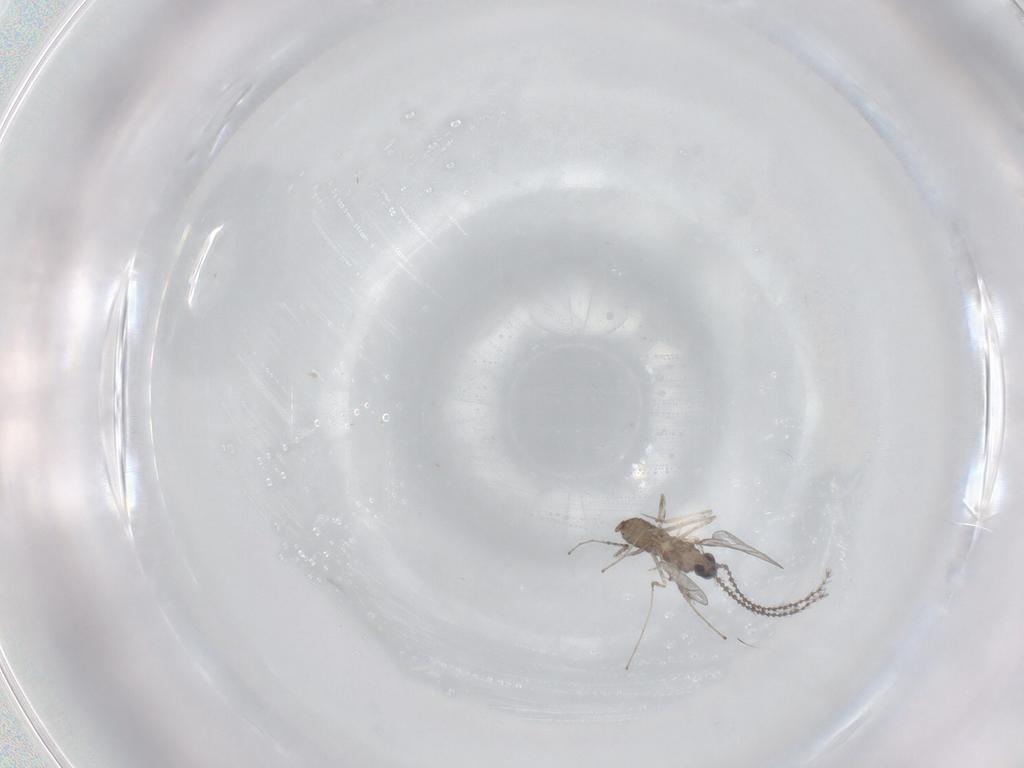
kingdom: Animalia
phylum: Arthropoda
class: Insecta
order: Diptera
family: Cecidomyiidae
